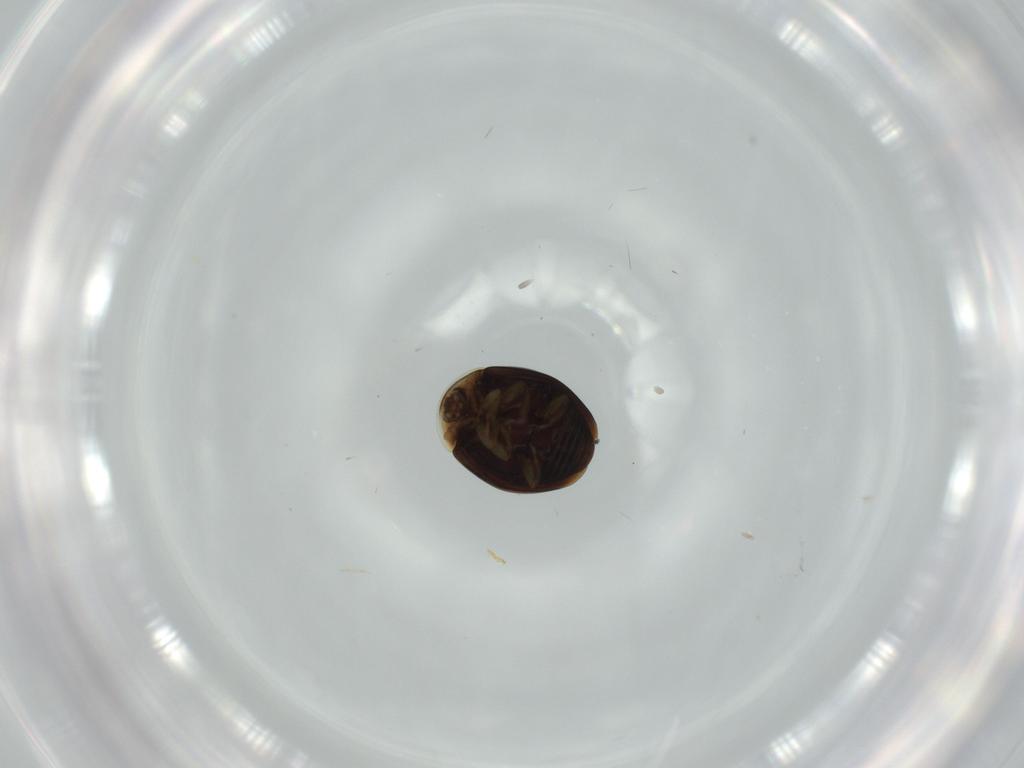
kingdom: Animalia
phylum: Arthropoda
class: Insecta
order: Coleoptera
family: Corylophidae
